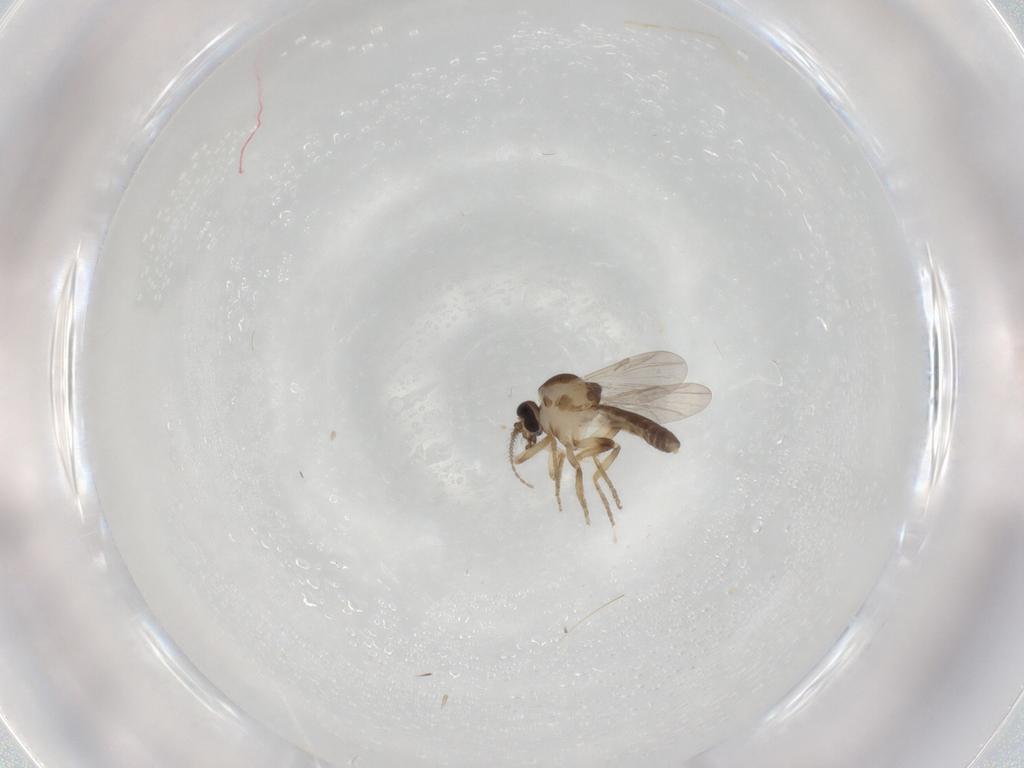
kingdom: Animalia
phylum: Arthropoda
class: Insecta
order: Diptera
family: Ceratopogonidae
